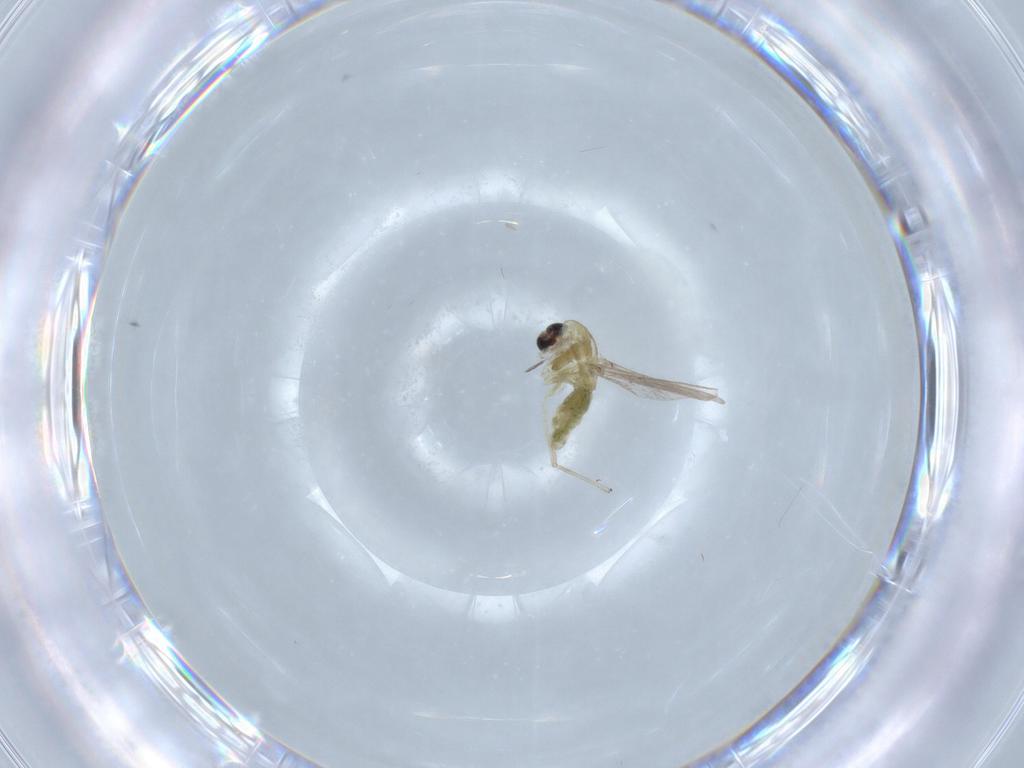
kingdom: Animalia
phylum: Arthropoda
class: Insecta
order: Diptera
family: Chironomidae
